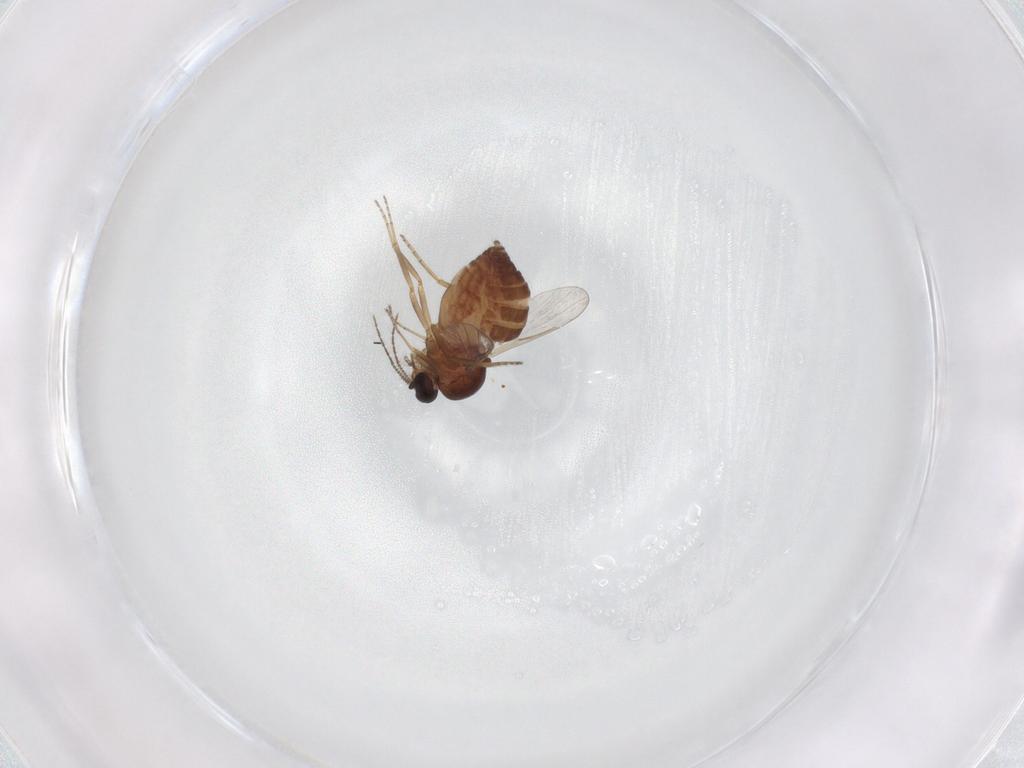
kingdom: Animalia
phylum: Arthropoda
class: Insecta
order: Diptera
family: Ceratopogonidae
